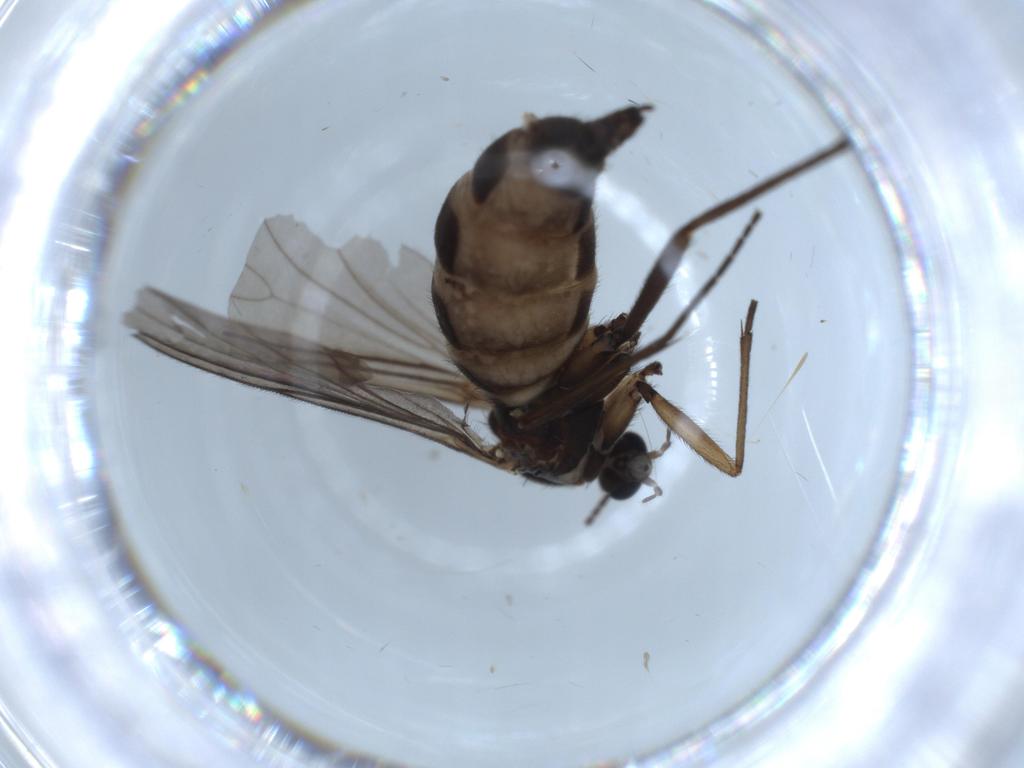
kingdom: Animalia
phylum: Arthropoda
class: Insecta
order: Diptera
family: Sciaridae
